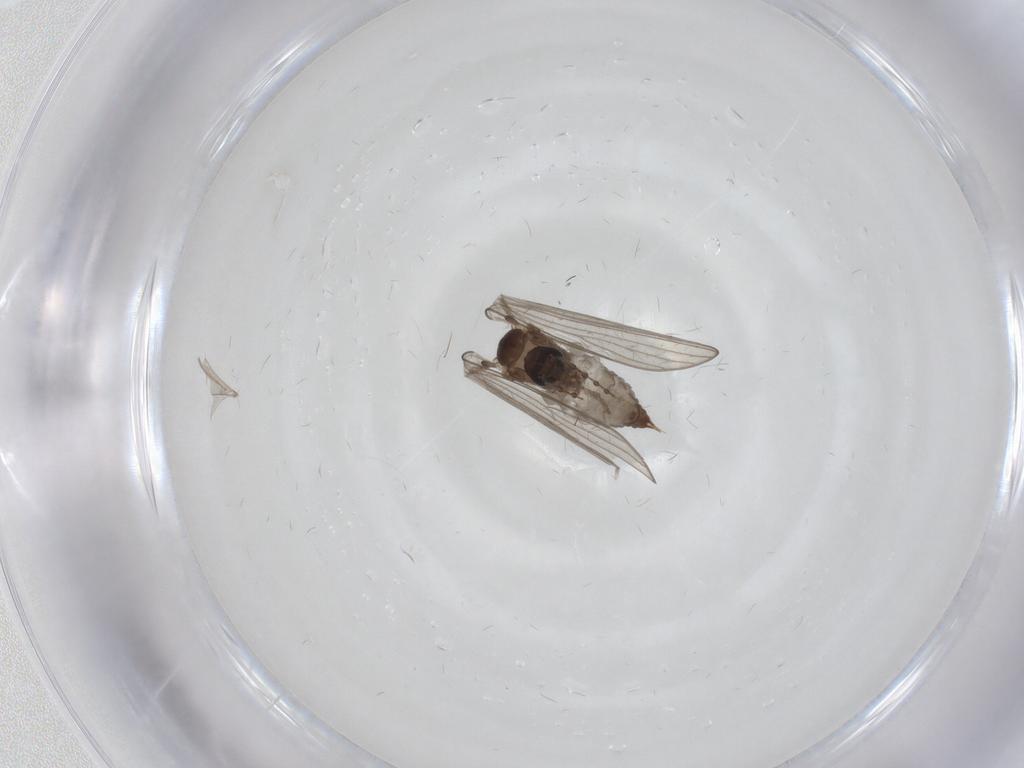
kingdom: Animalia
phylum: Arthropoda
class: Insecta
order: Diptera
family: Psychodidae
